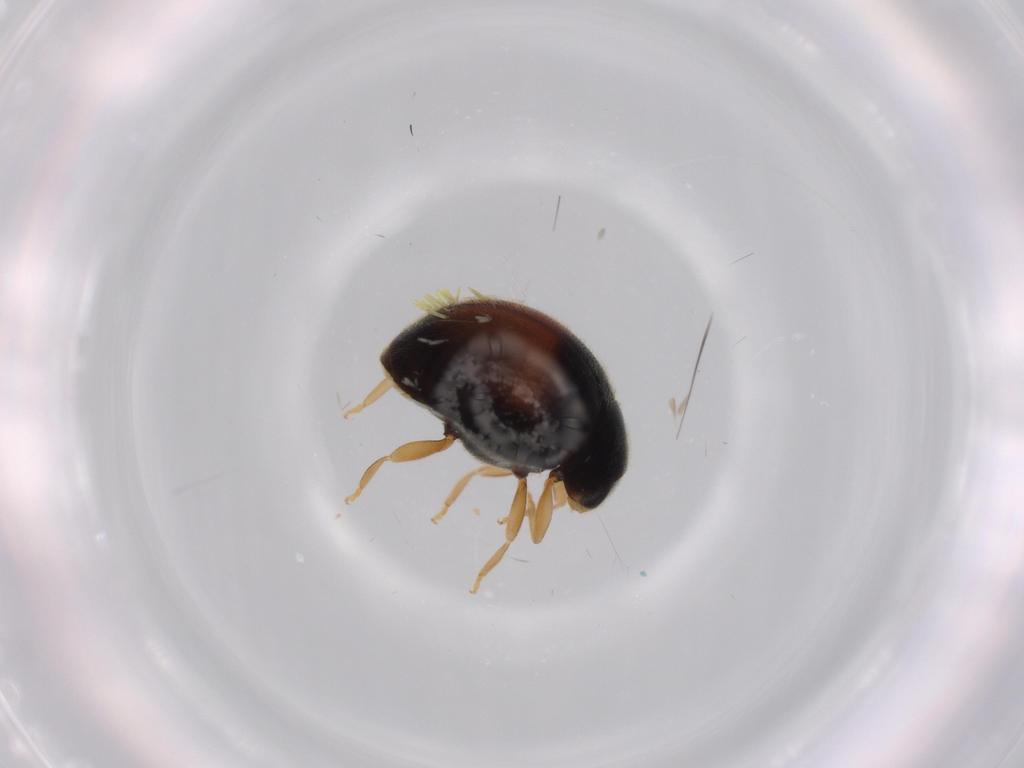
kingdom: Animalia
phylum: Arthropoda
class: Insecta
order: Coleoptera
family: Coccinellidae
